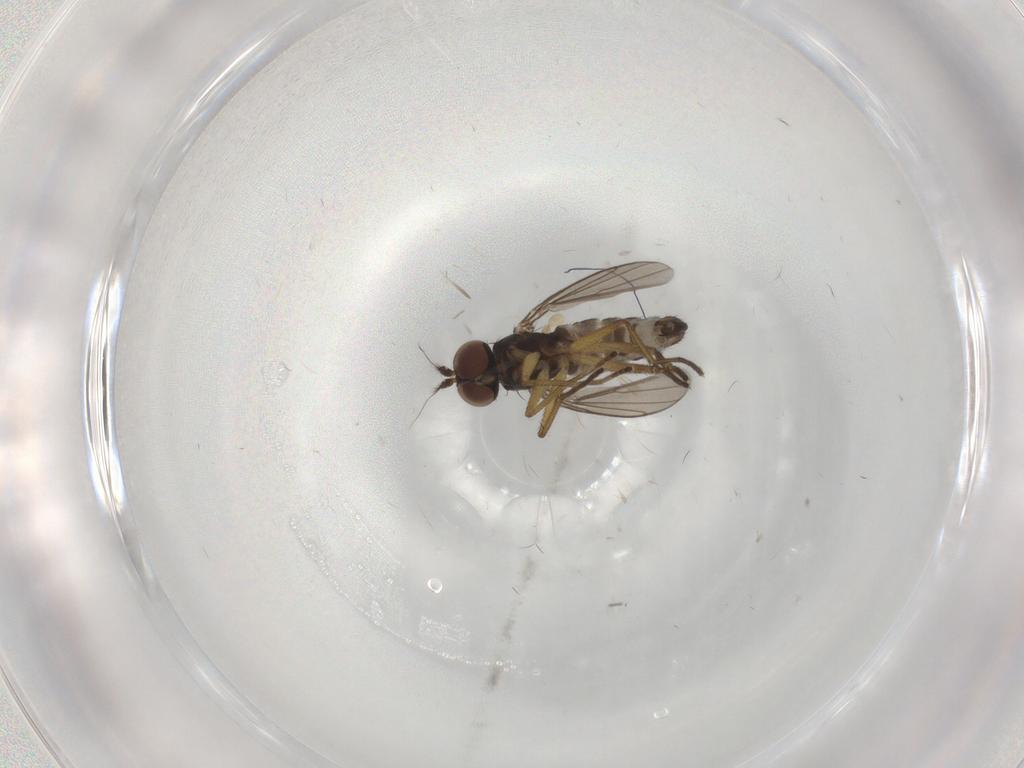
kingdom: Animalia
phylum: Arthropoda
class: Insecta
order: Diptera
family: Dolichopodidae
